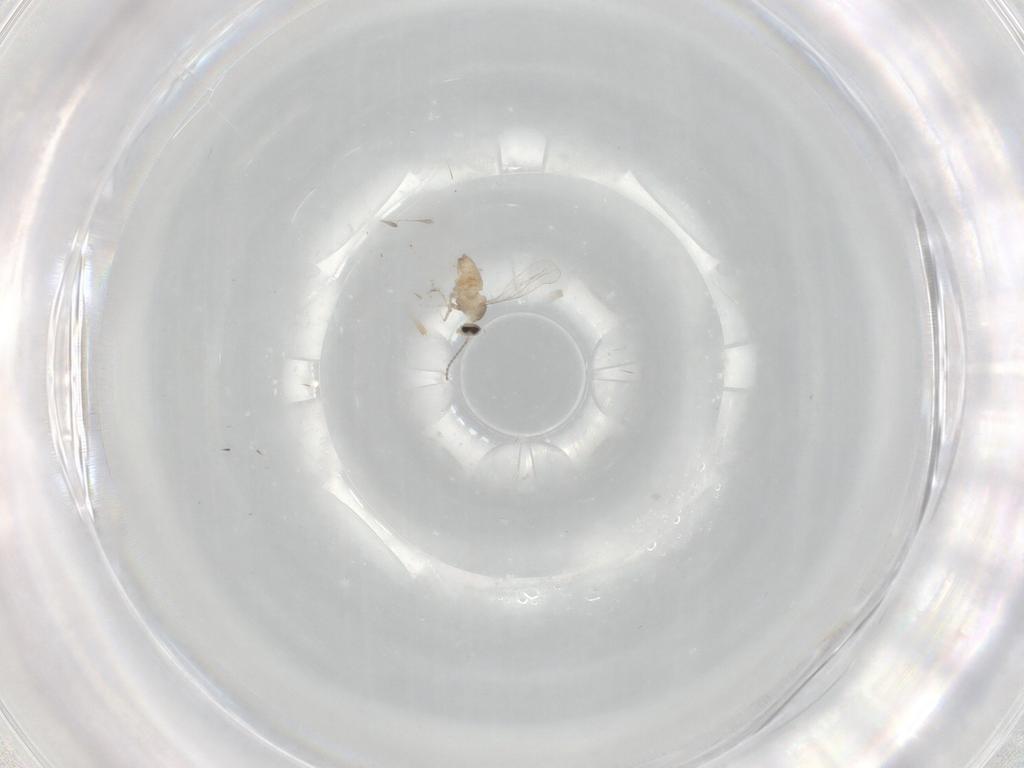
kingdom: Animalia
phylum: Arthropoda
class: Insecta
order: Diptera
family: Cecidomyiidae
